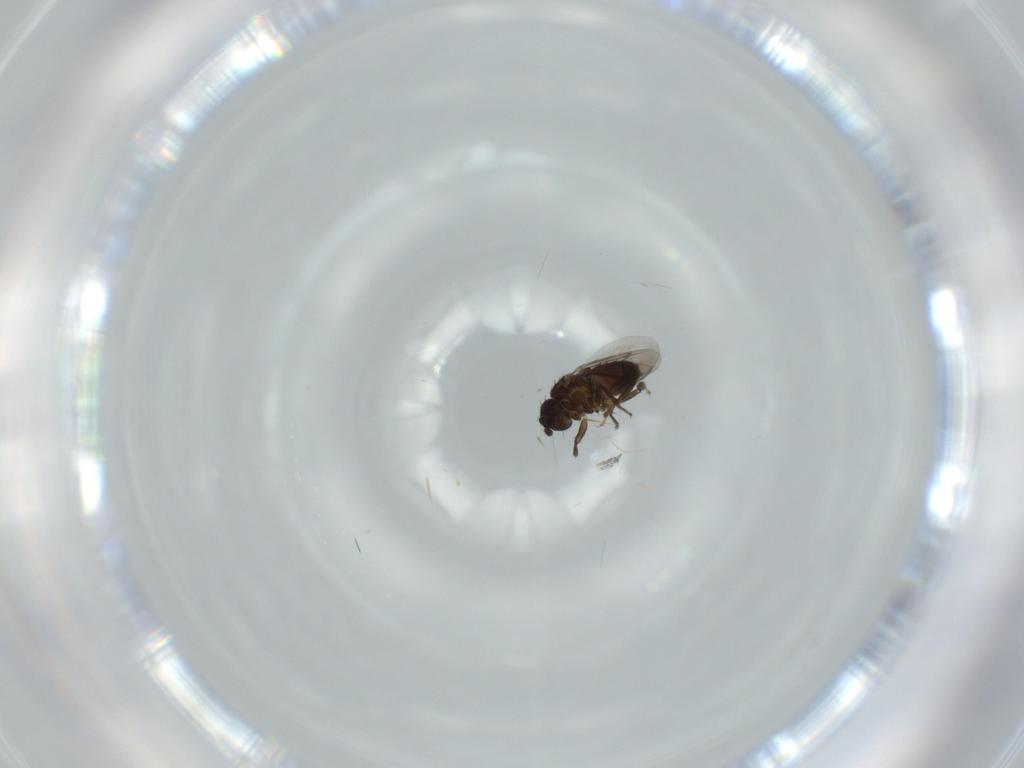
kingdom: Animalia
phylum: Arthropoda
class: Insecta
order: Diptera
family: Sphaeroceridae
